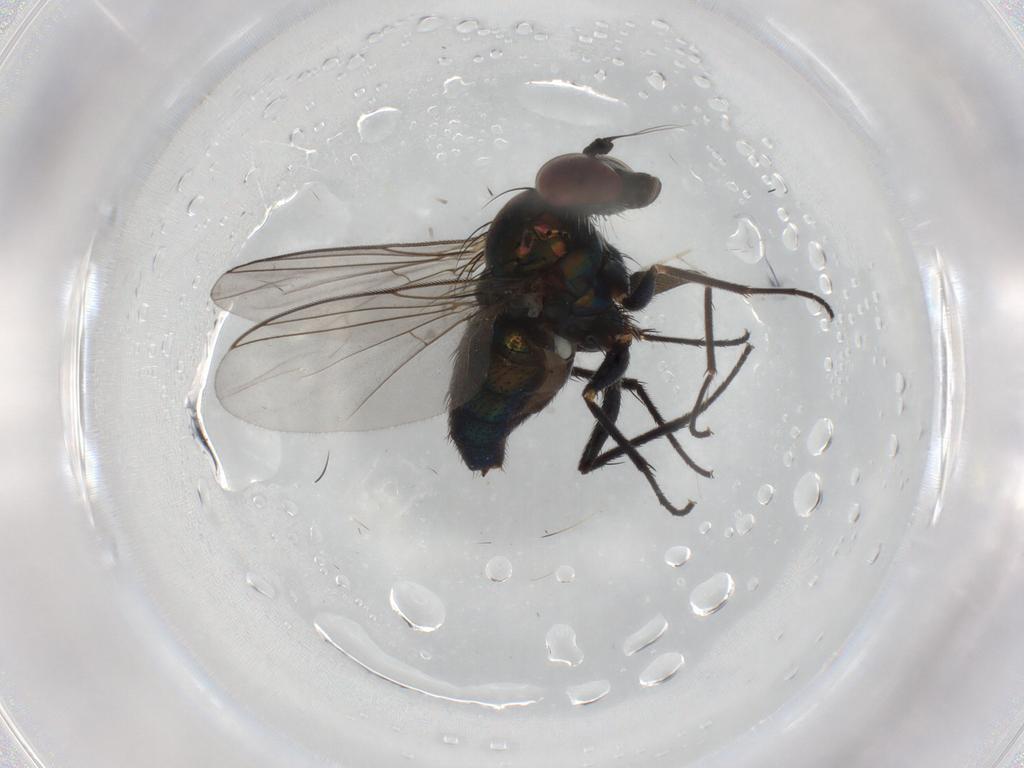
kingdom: Animalia
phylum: Arthropoda
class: Insecta
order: Diptera
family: Dolichopodidae
